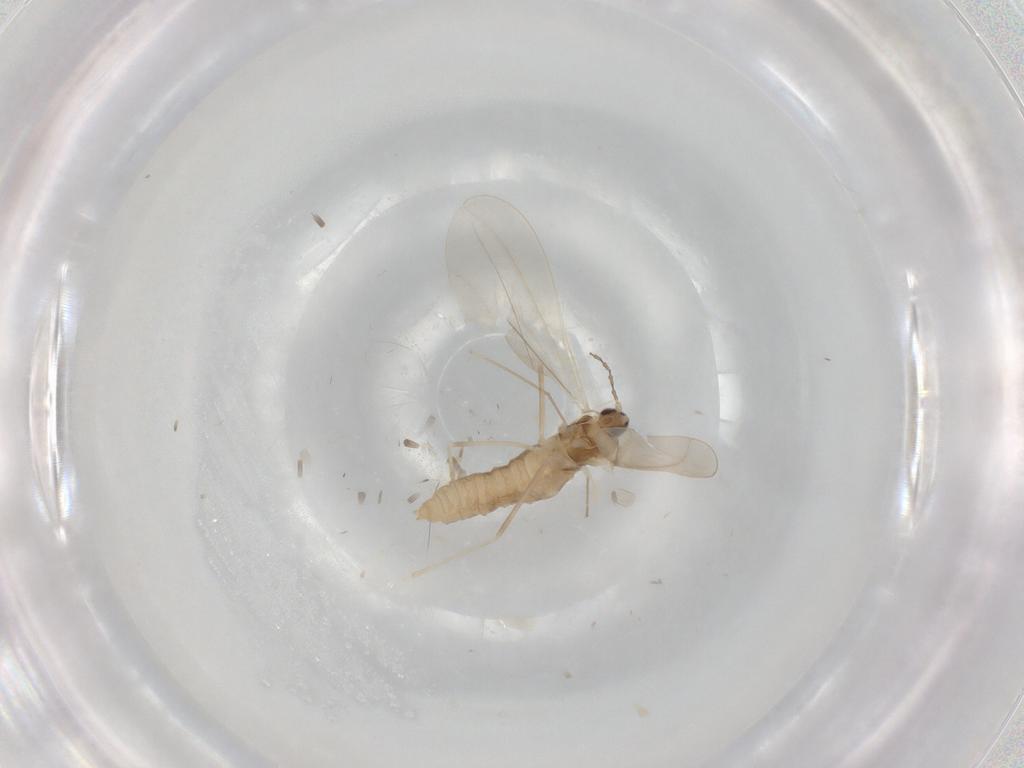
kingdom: Animalia
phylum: Arthropoda
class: Insecta
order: Diptera
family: Cecidomyiidae
